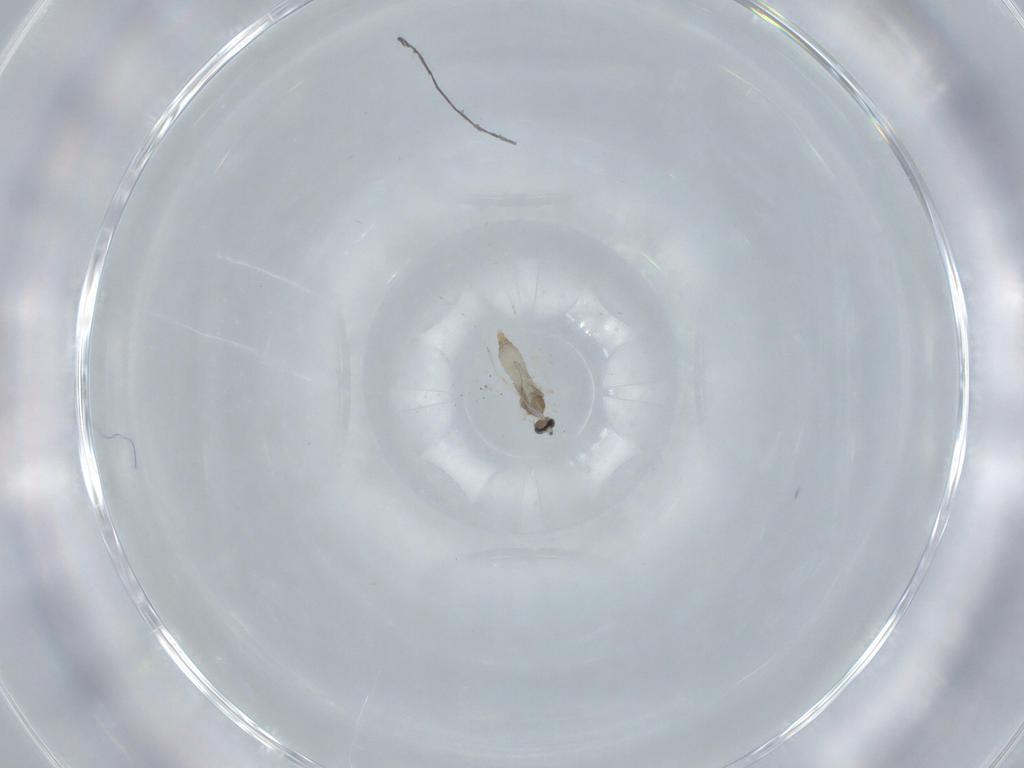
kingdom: Animalia
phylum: Arthropoda
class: Insecta
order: Diptera
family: Cecidomyiidae
